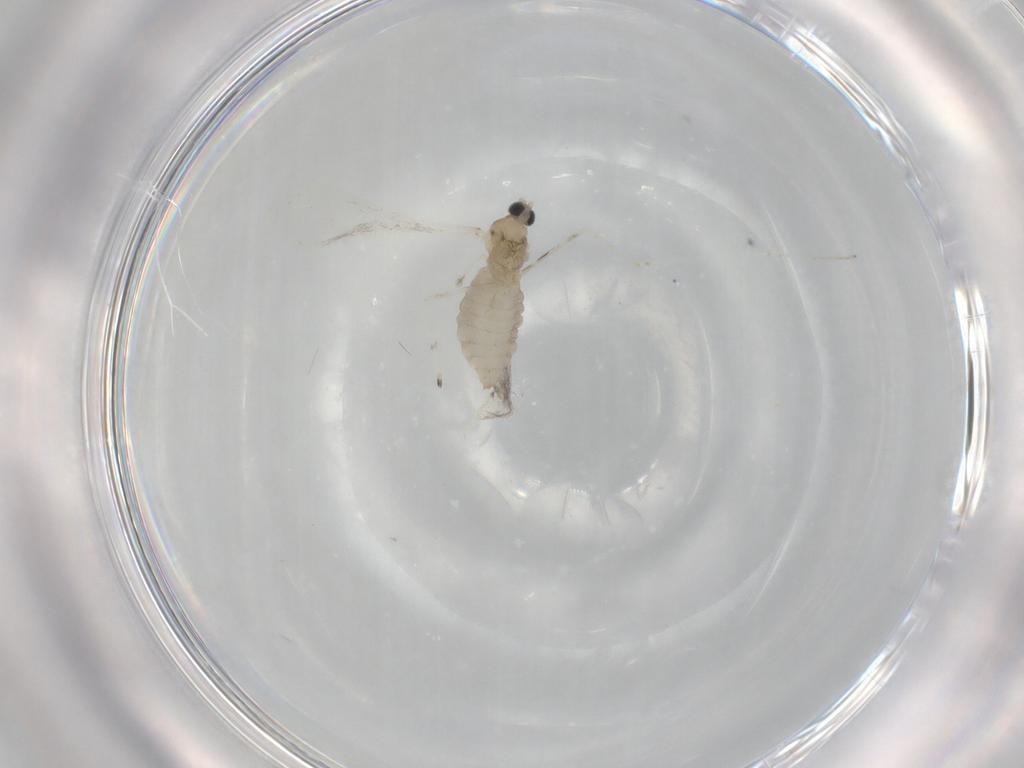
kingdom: Animalia
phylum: Arthropoda
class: Insecta
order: Diptera
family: Cecidomyiidae
